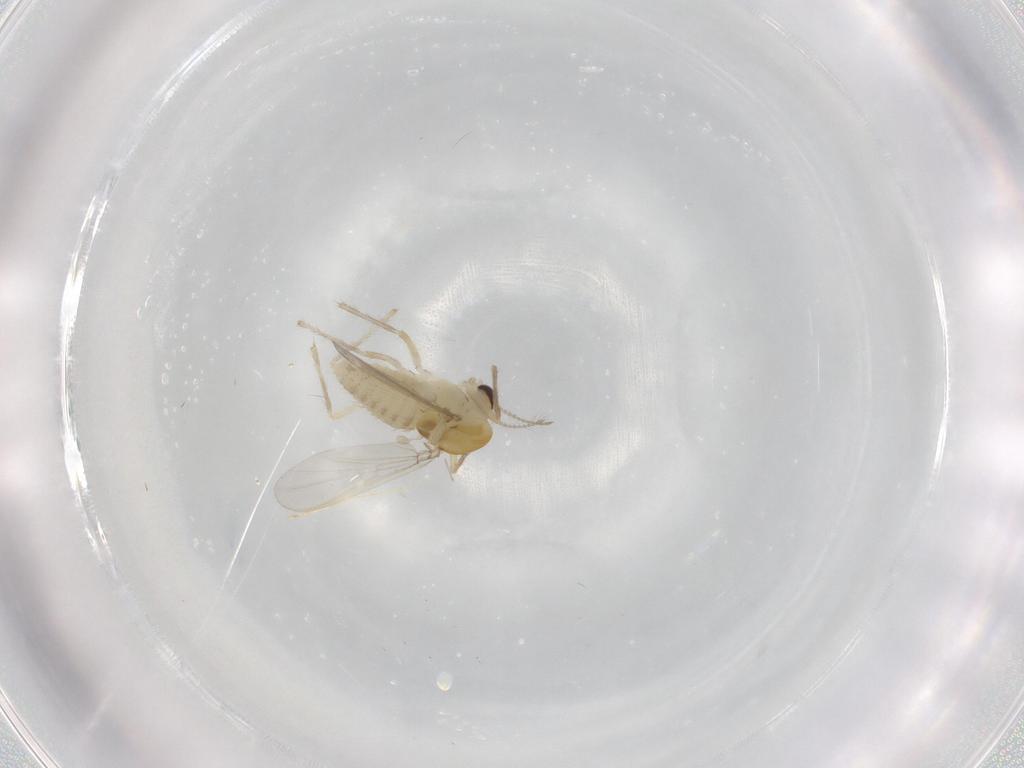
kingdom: Animalia
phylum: Arthropoda
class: Insecta
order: Diptera
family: Chironomidae
